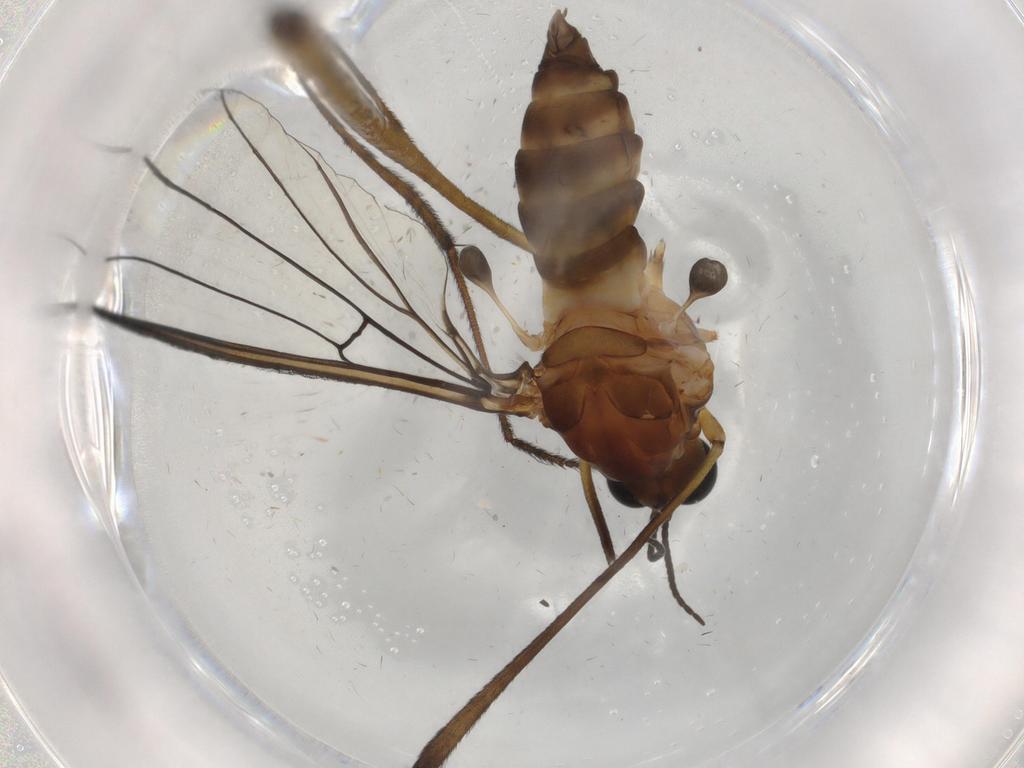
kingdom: Animalia
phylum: Arthropoda
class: Insecta
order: Diptera
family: Cecidomyiidae
